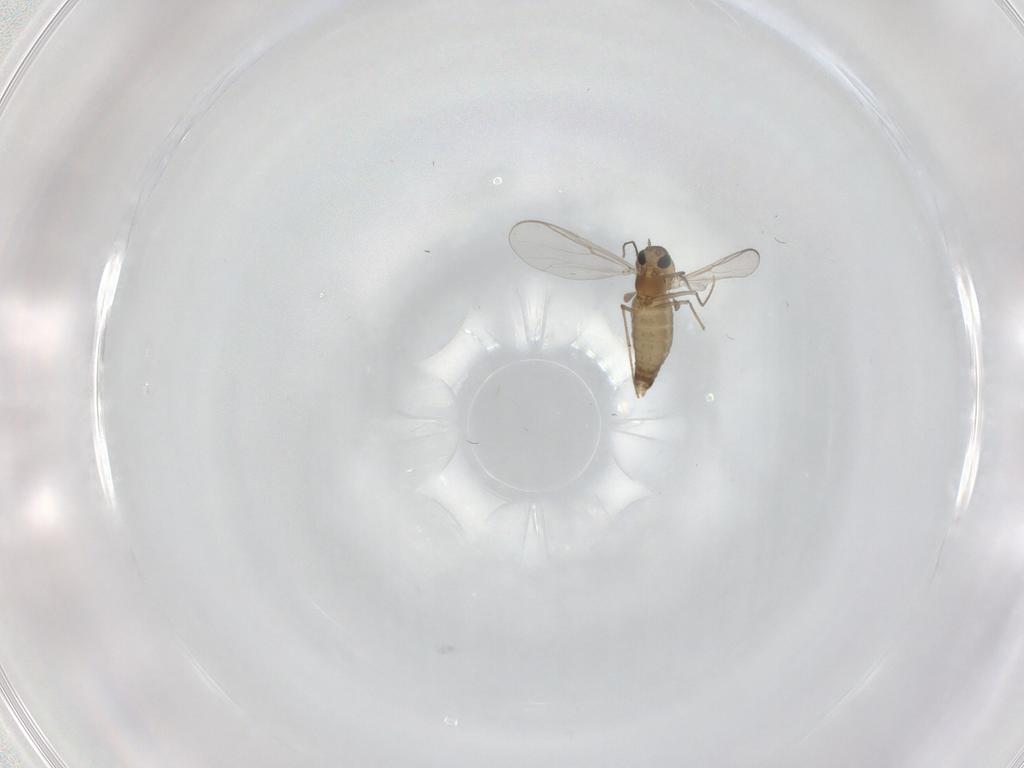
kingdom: Animalia
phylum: Arthropoda
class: Insecta
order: Diptera
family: Chironomidae
